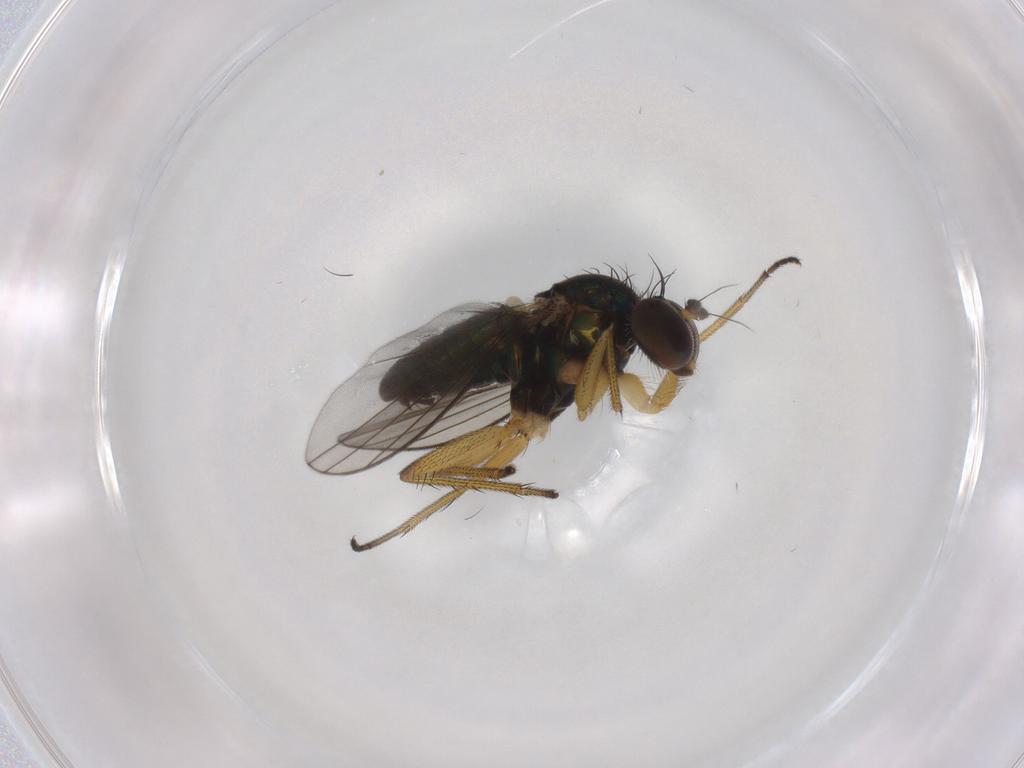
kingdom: Animalia
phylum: Arthropoda
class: Insecta
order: Diptera
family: Dolichopodidae
